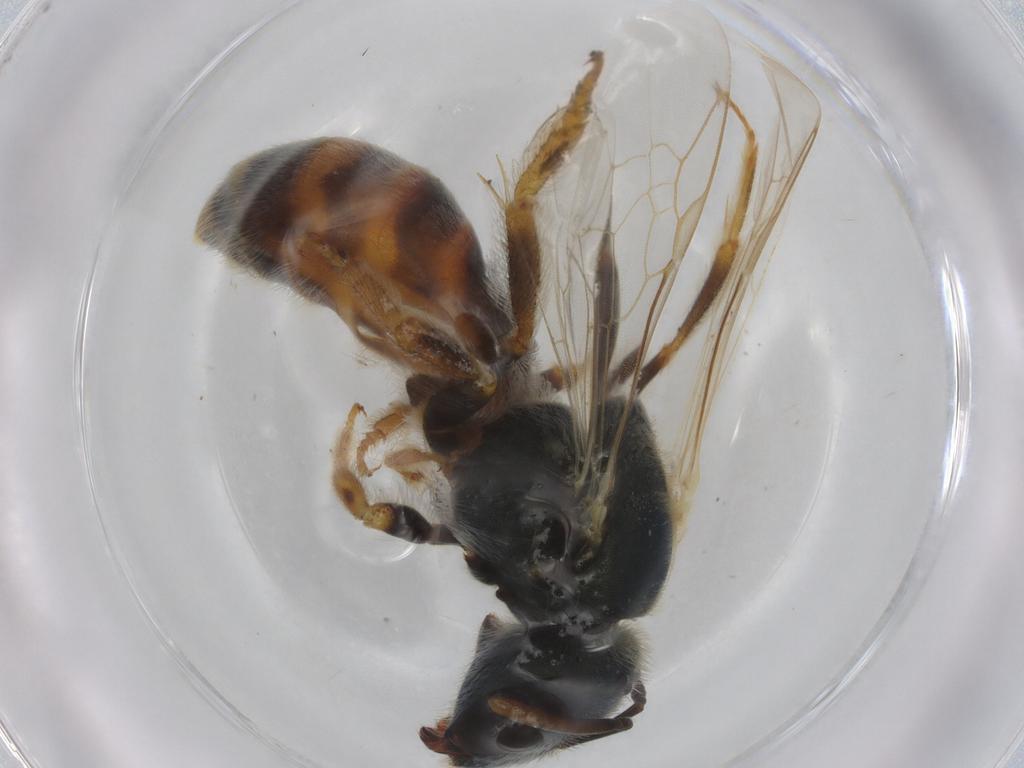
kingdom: Animalia
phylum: Arthropoda
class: Insecta
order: Hymenoptera
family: Halictidae
